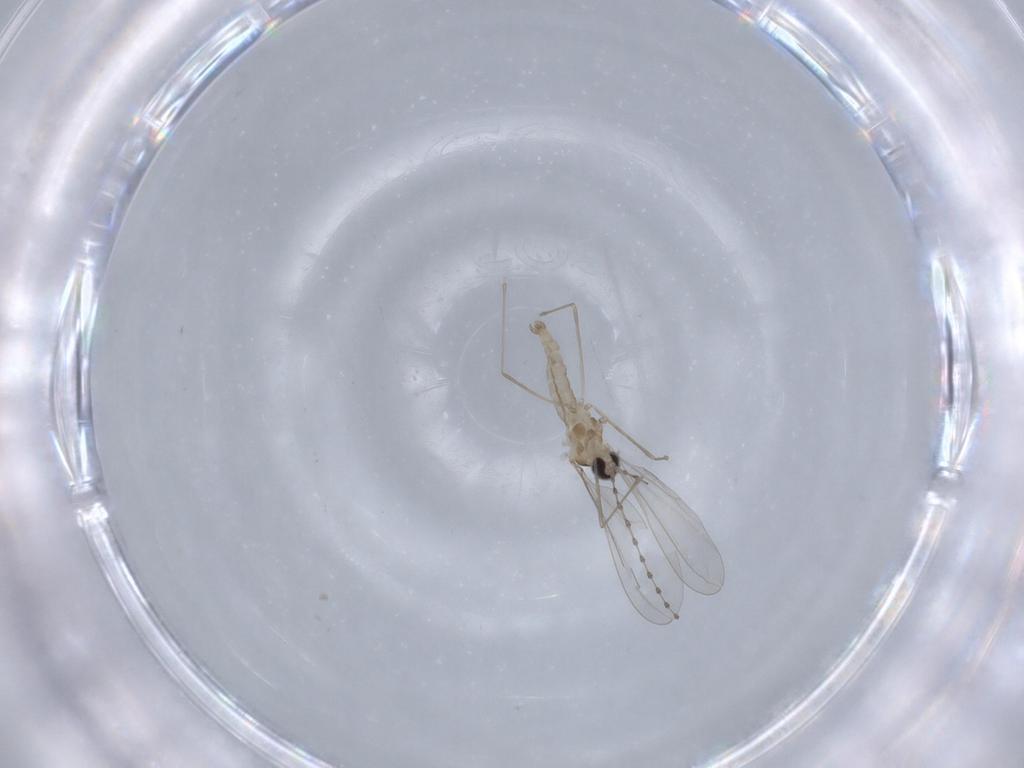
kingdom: Animalia
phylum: Arthropoda
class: Insecta
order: Diptera
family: Cecidomyiidae
